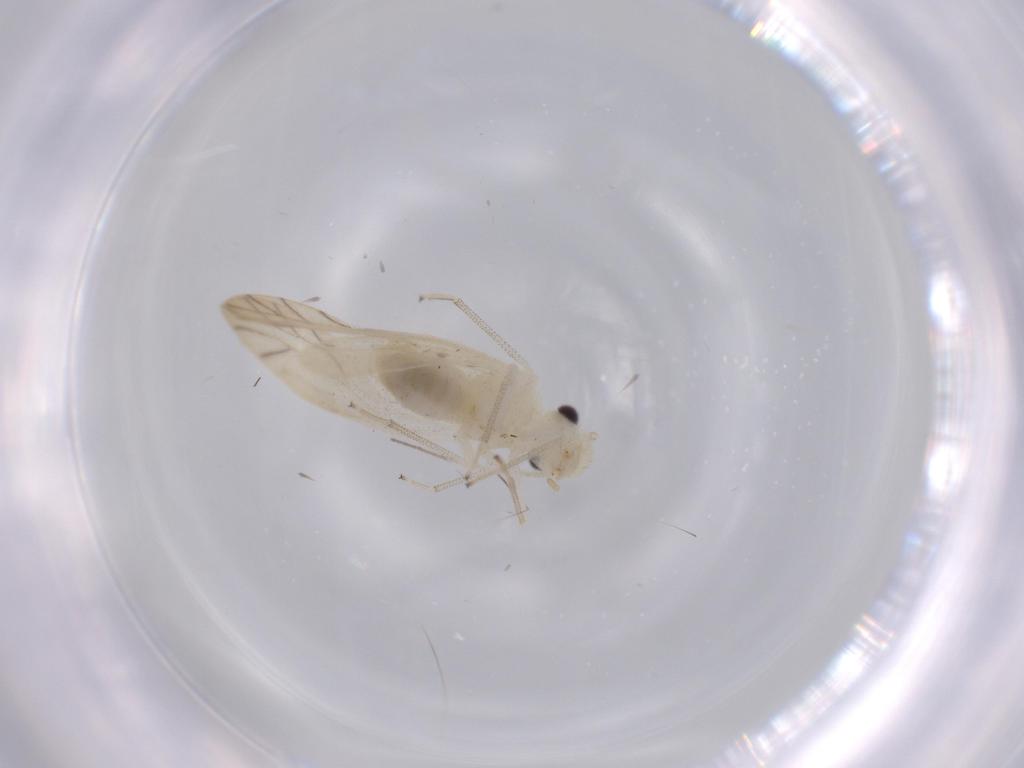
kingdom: Animalia
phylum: Arthropoda
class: Insecta
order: Psocodea
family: Caeciliusidae
